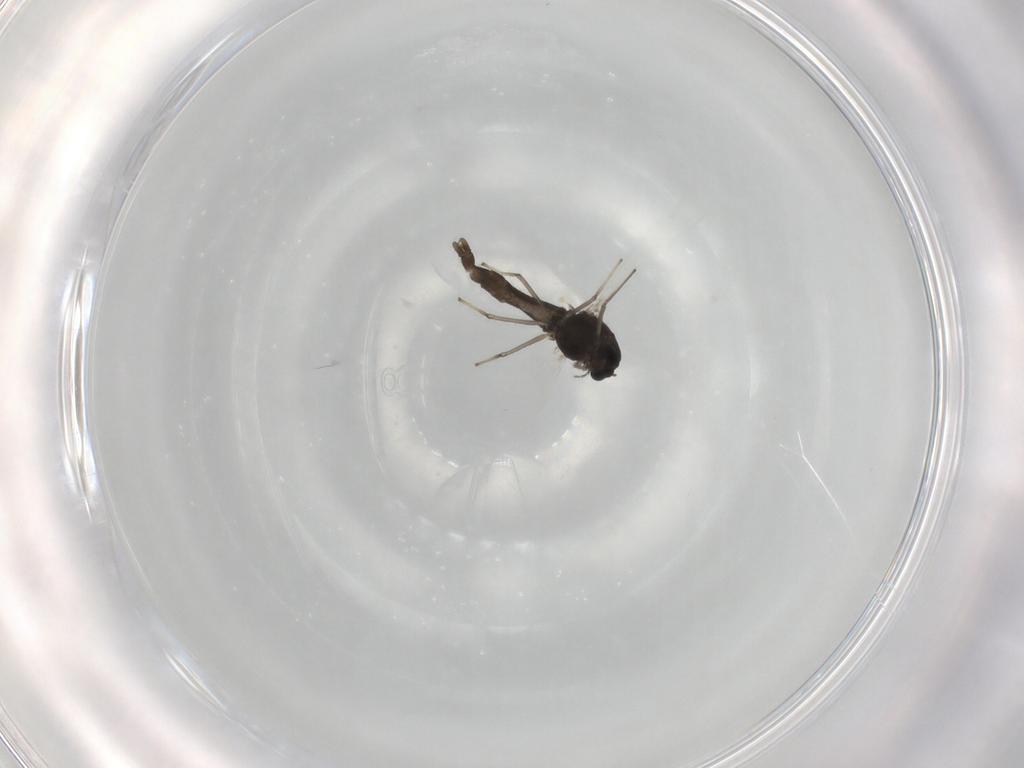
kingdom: Animalia
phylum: Arthropoda
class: Insecta
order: Diptera
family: Chironomidae
